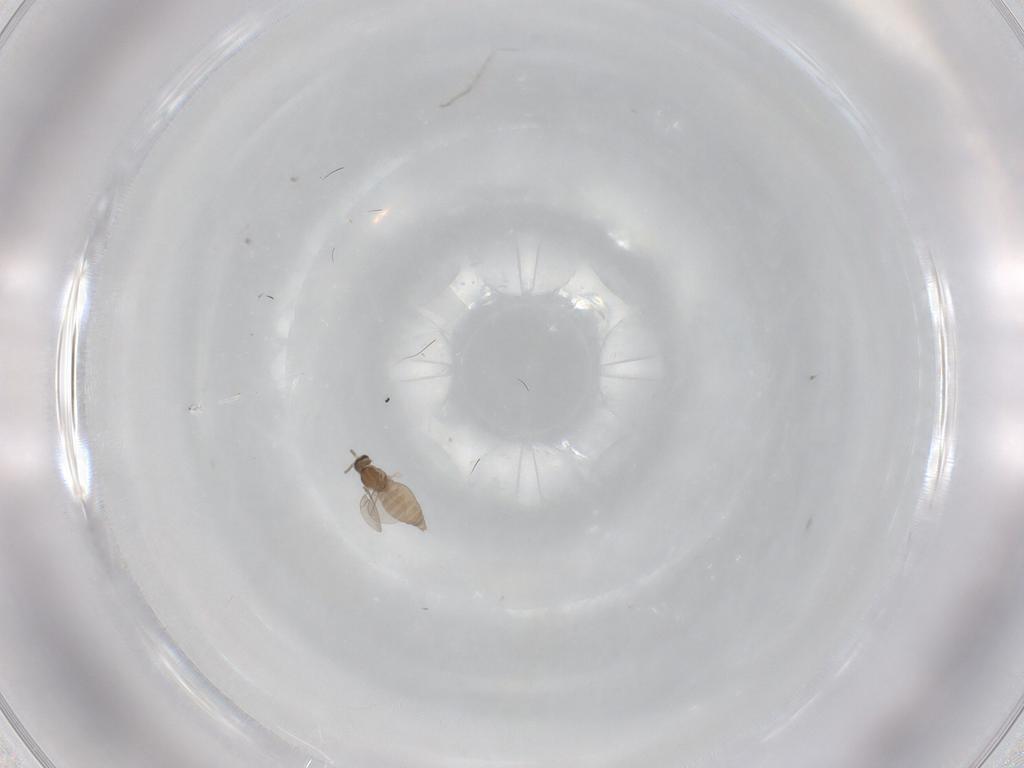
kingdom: Animalia
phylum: Arthropoda
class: Insecta
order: Diptera
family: Cecidomyiidae
